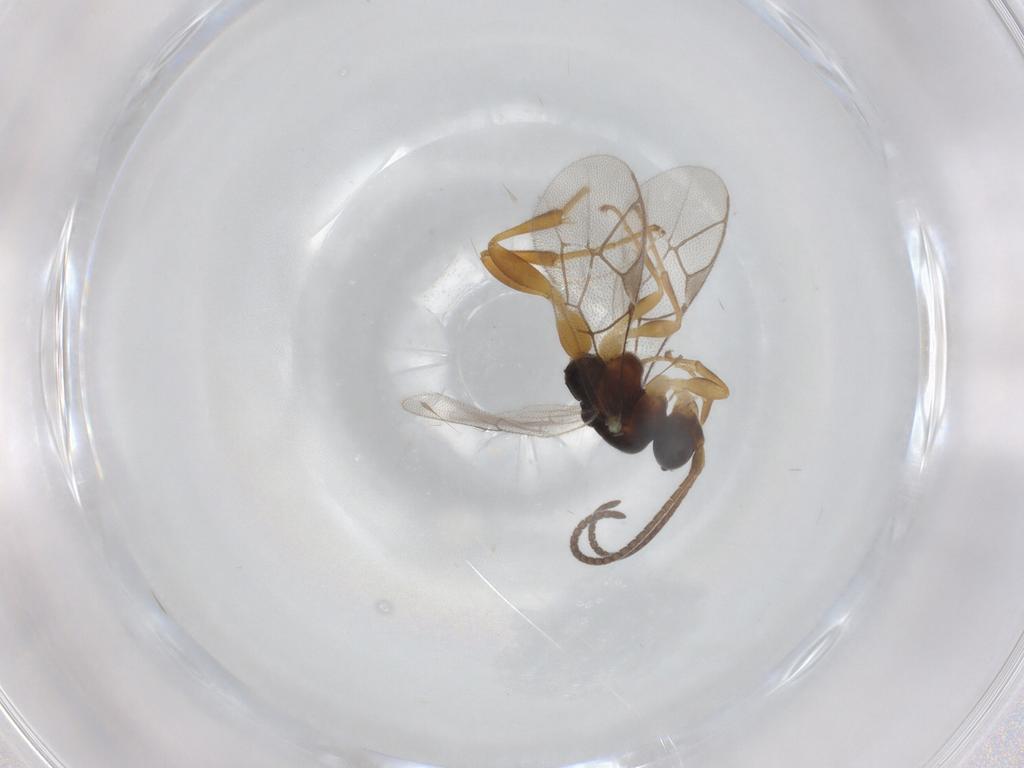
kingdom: Animalia
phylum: Arthropoda
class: Insecta
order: Hymenoptera
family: Ichneumonidae
